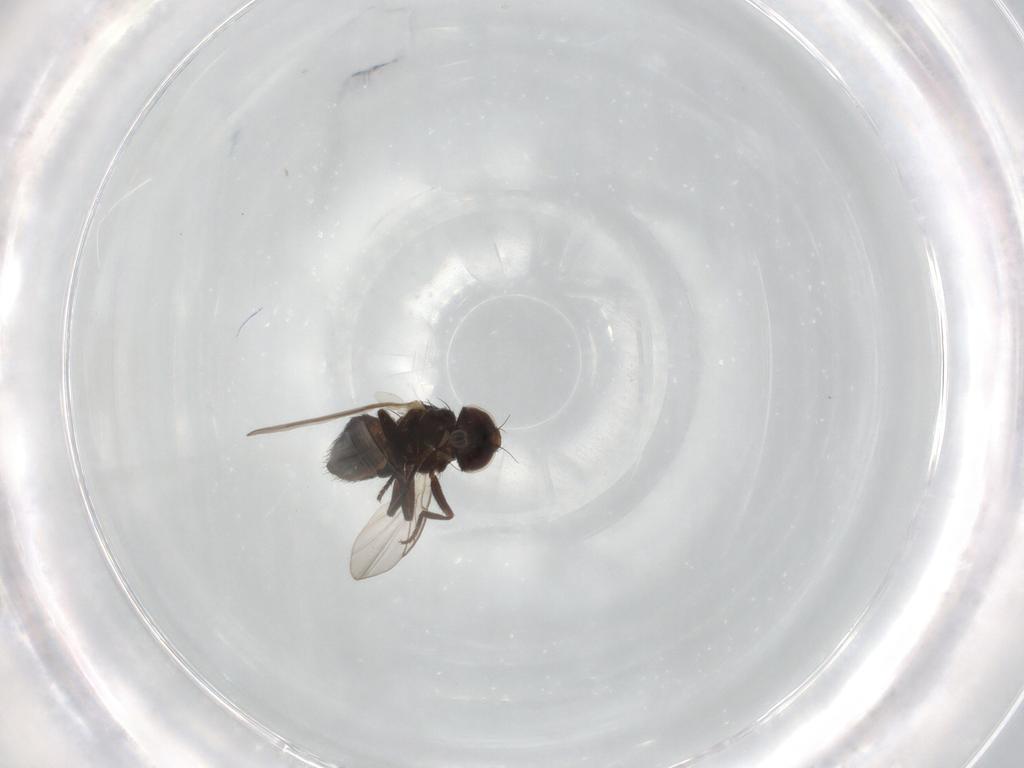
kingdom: Animalia
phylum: Arthropoda
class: Insecta
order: Diptera
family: Agromyzidae
